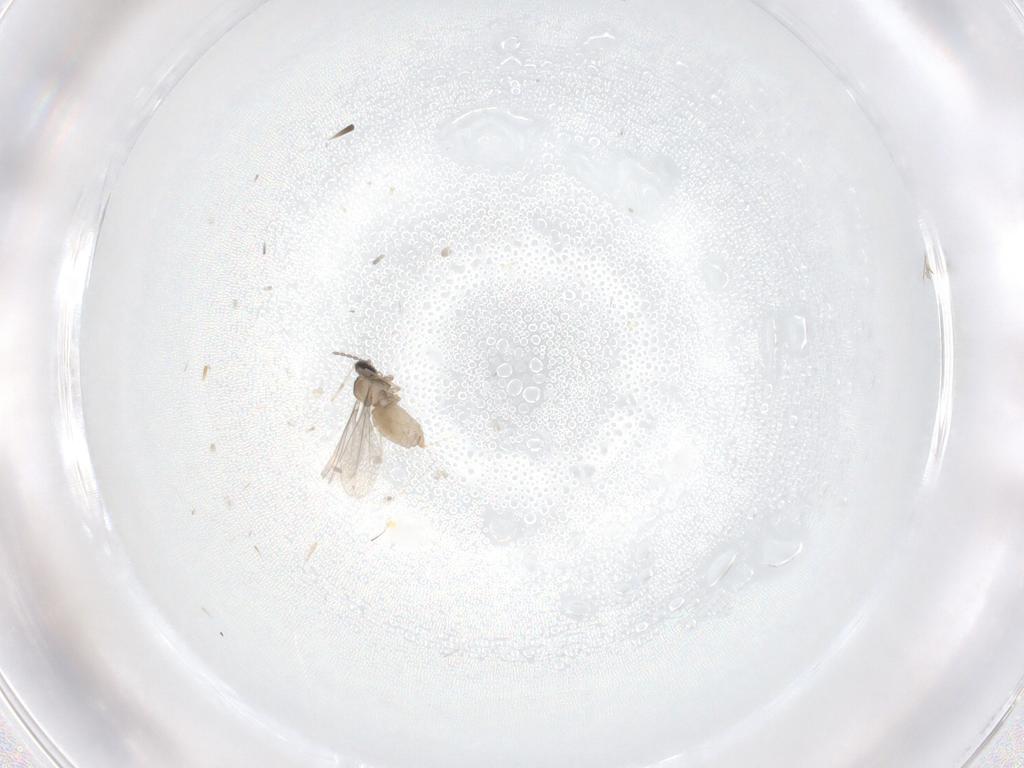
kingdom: Animalia
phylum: Arthropoda
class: Insecta
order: Diptera
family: Cecidomyiidae
